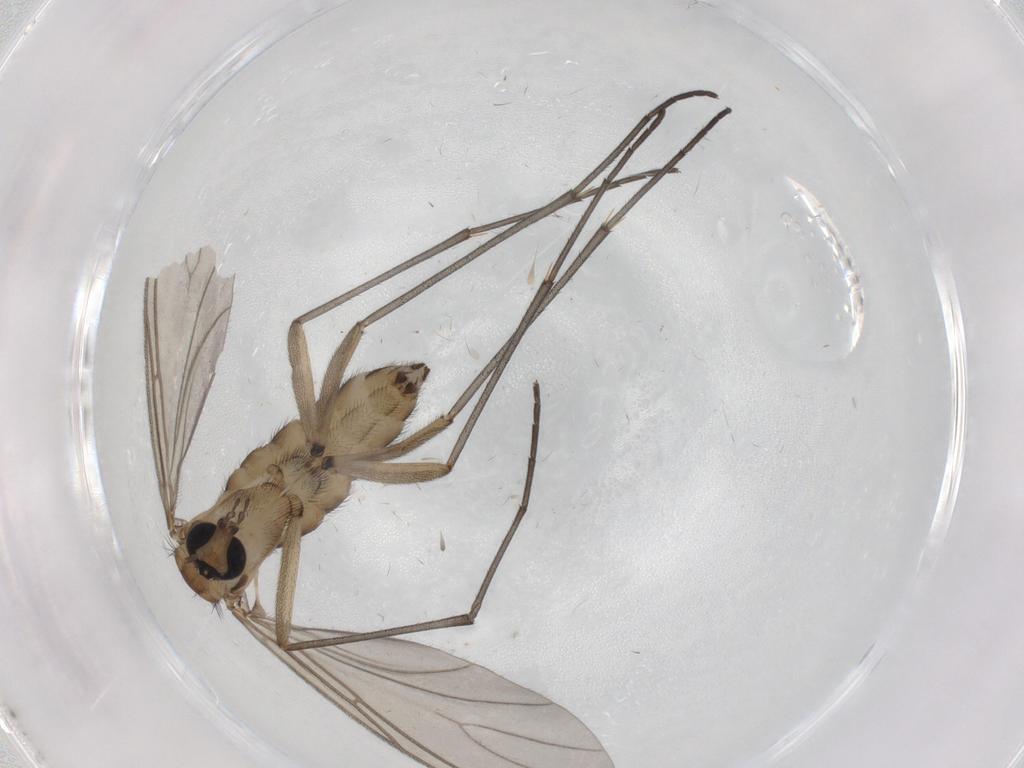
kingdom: Animalia
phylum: Arthropoda
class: Insecta
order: Diptera
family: Sciaridae
